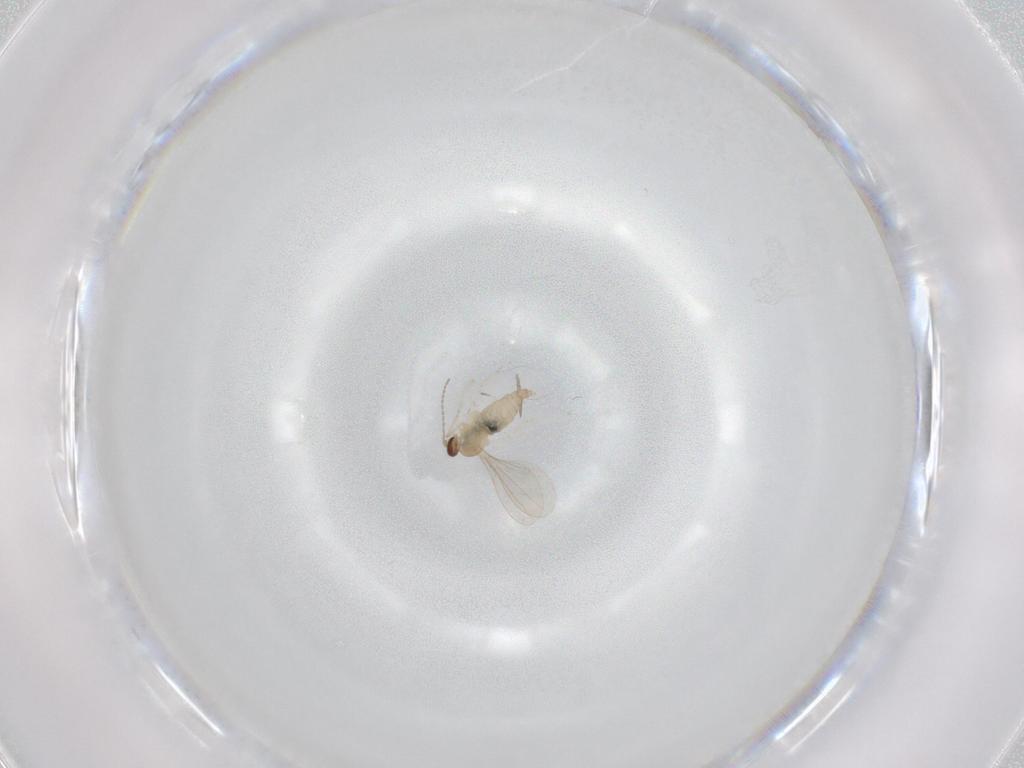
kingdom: Animalia
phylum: Arthropoda
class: Insecta
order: Diptera
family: Cecidomyiidae
